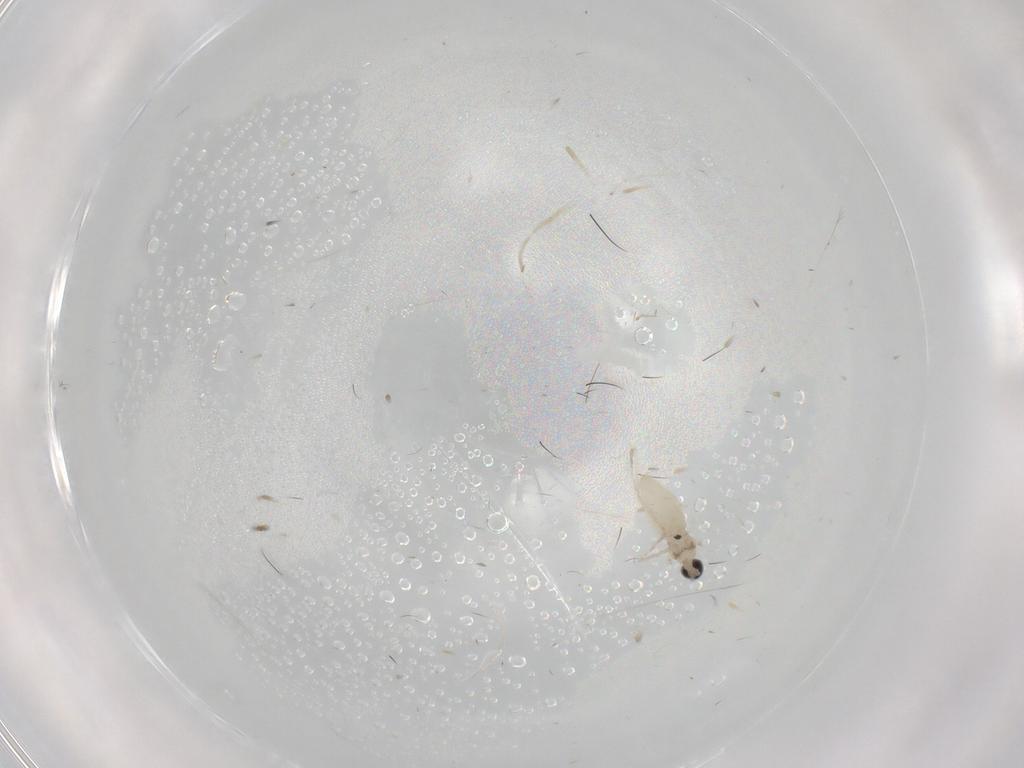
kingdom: Animalia
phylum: Arthropoda
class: Insecta
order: Diptera
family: Cecidomyiidae
